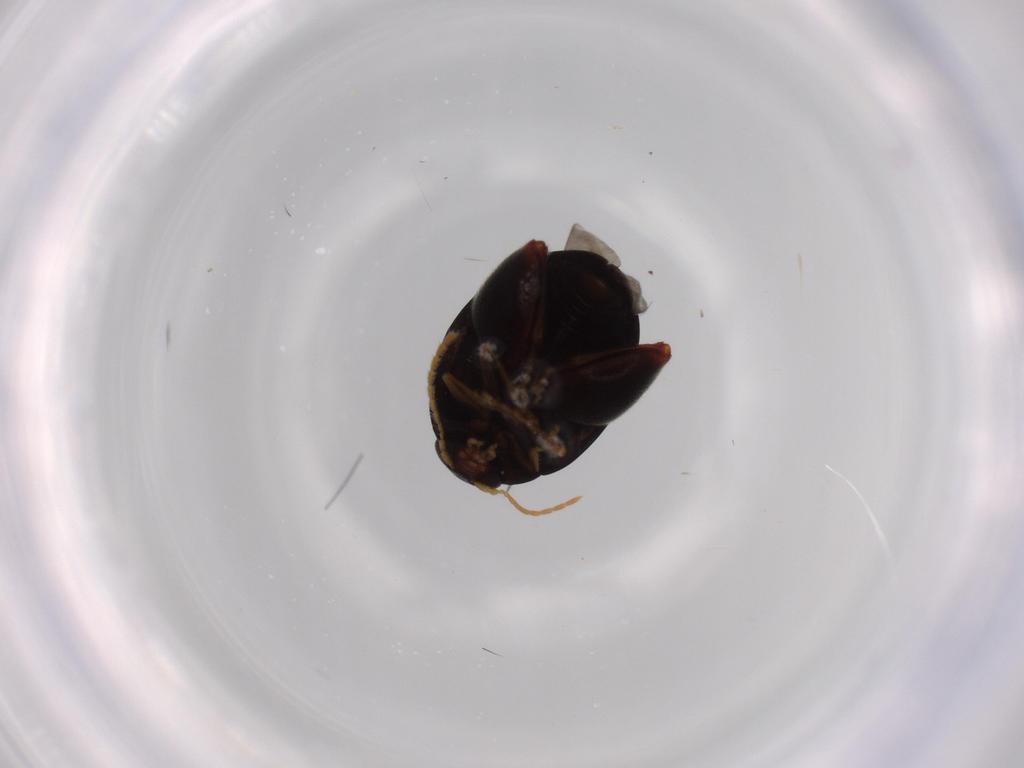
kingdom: Animalia
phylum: Arthropoda
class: Insecta
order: Coleoptera
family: Chrysomelidae
